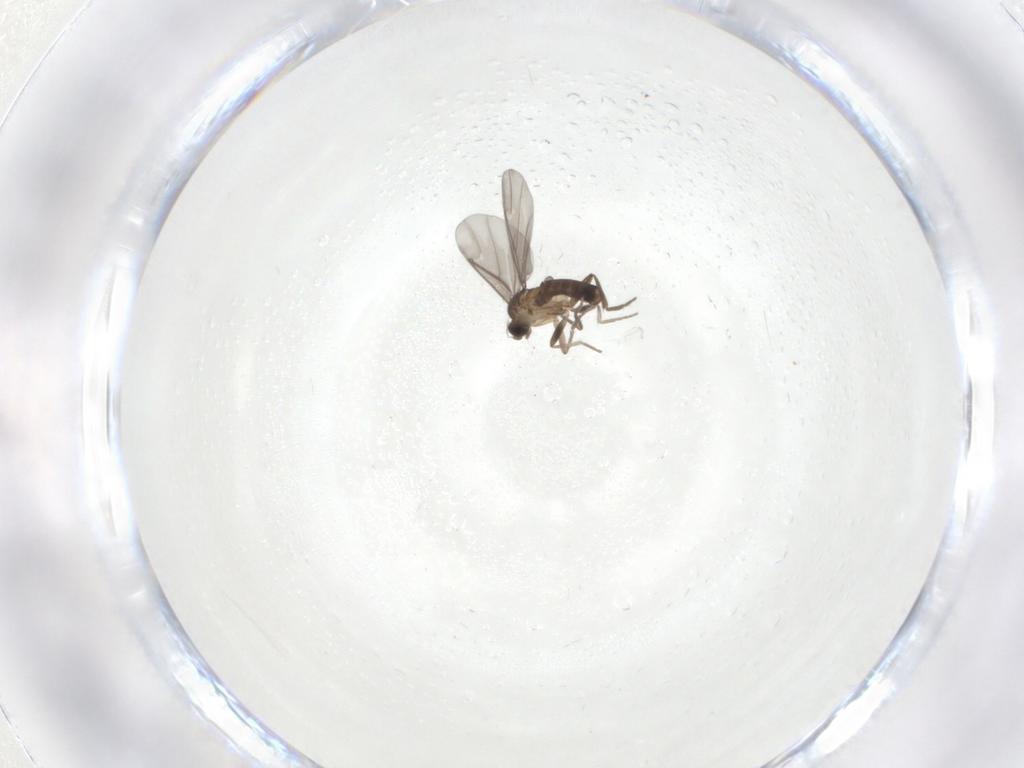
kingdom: Animalia
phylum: Arthropoda
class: Insecta
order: Diptera
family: Phoridae
